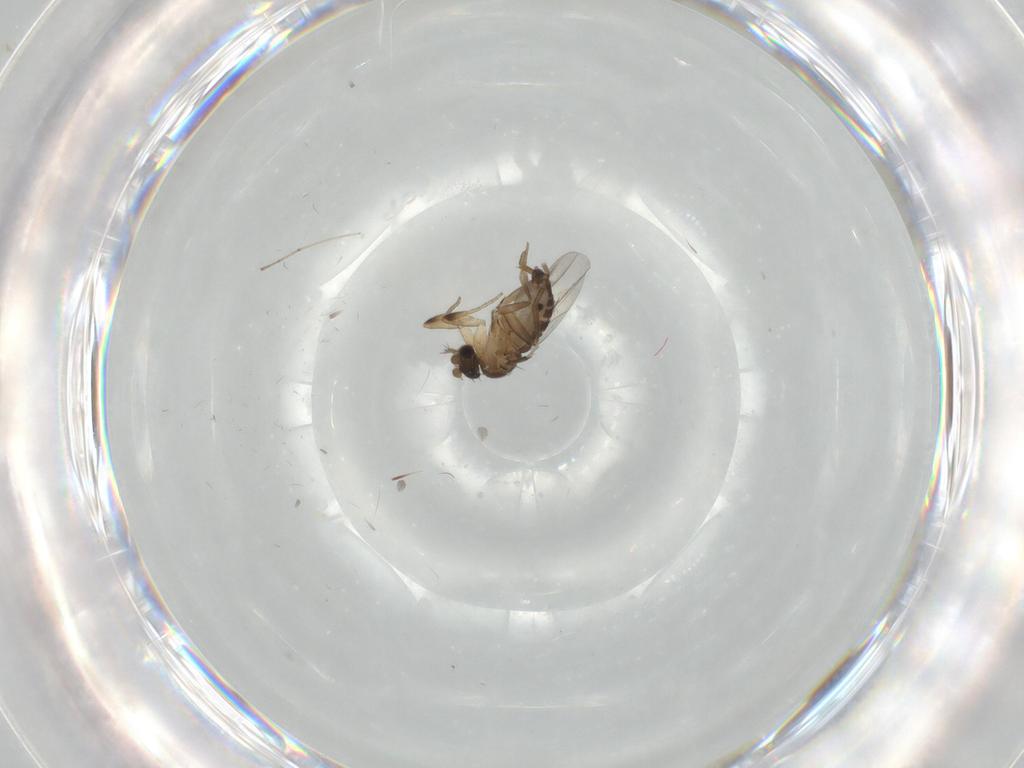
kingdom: Animalia
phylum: Arthropoda
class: Insecta
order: Diptera
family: Phoridae
